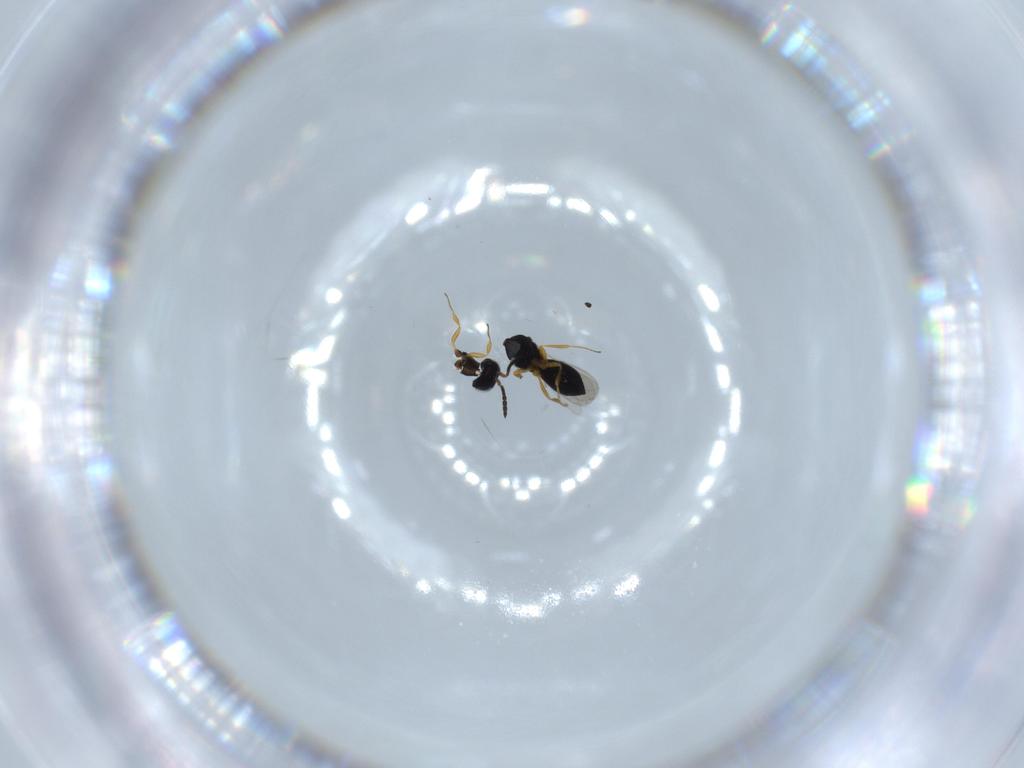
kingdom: Animalia
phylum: Arthropoda
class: Insecta
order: Hymenoptera
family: Scelionidae
